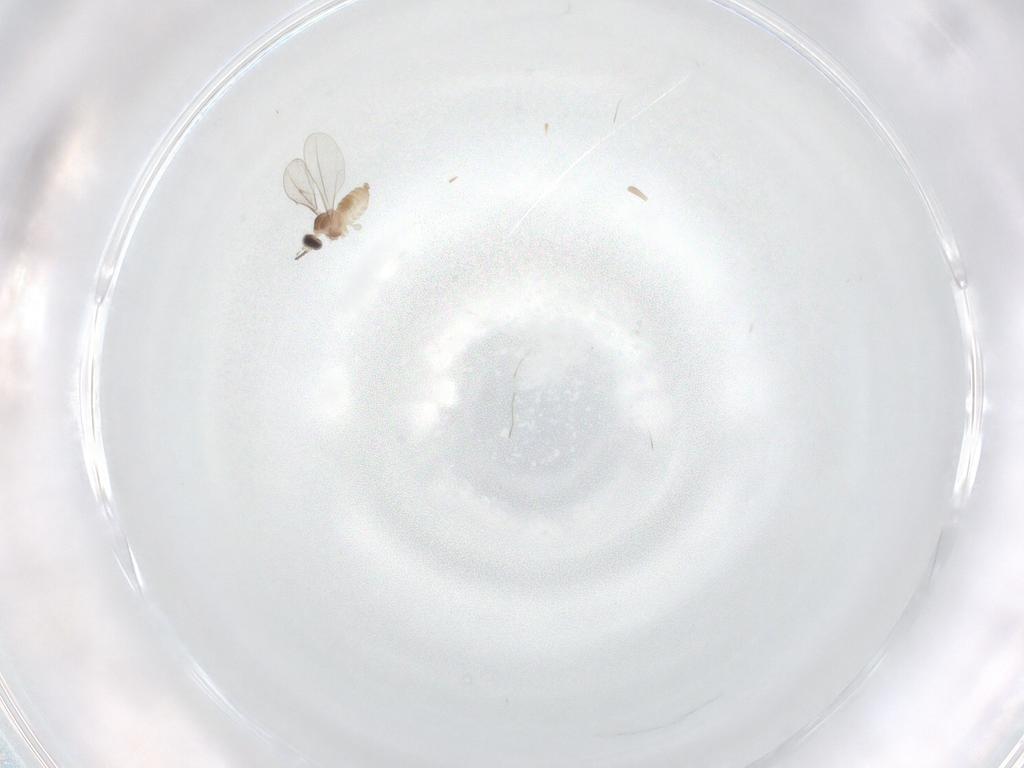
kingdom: Animalia
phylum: Arthropoda
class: Insecta
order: Diptera
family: Cecidomyiidae
